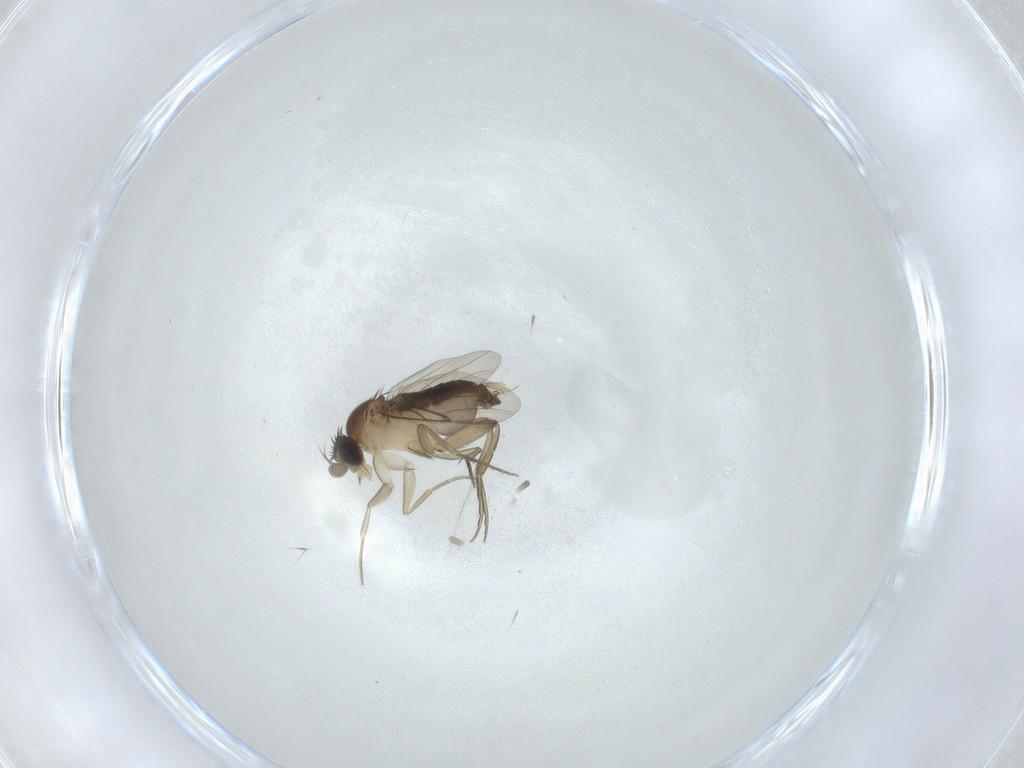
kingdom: Animalia
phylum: Arthropoda
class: Insecta
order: Diptera
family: Phoridae
